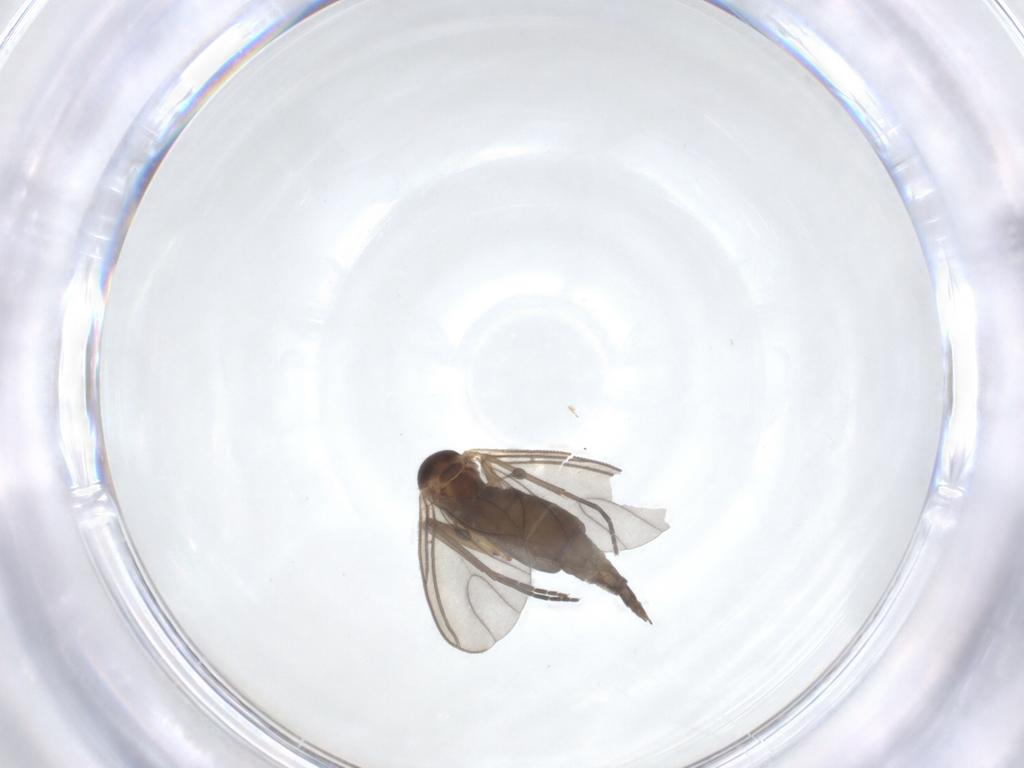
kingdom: Animalia
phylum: Arthropoda
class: Insecta
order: Diptera
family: Sciaridae
